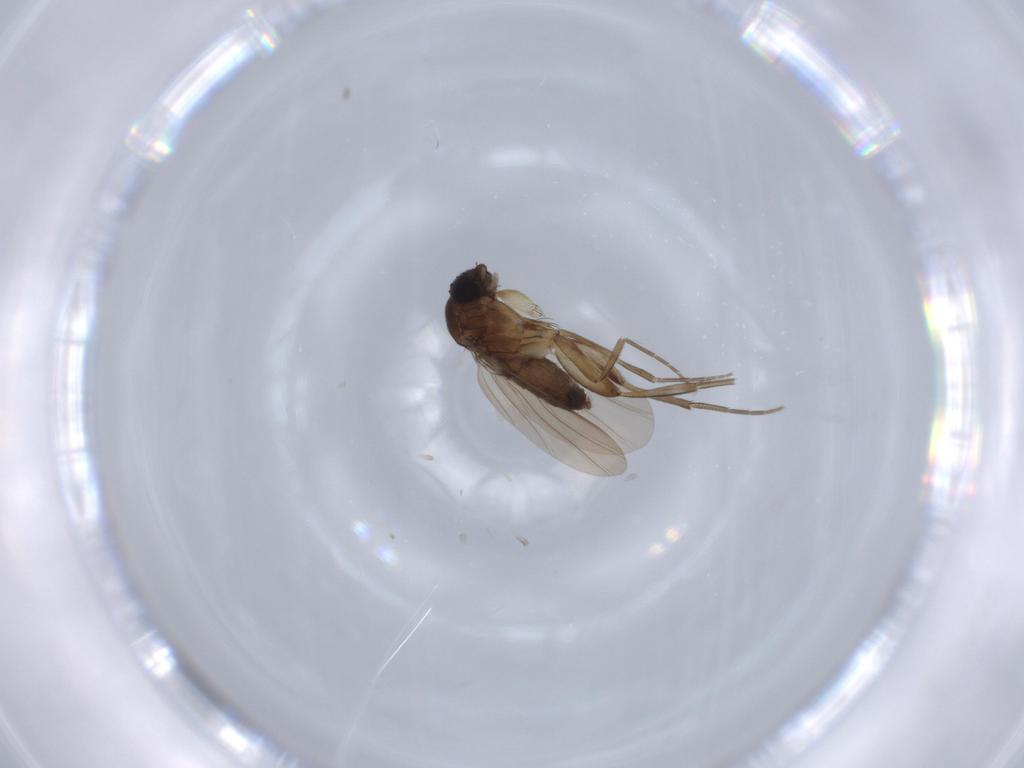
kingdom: Animalia
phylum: Arthropoda
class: Insecta
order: Diptera
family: Phoridae
